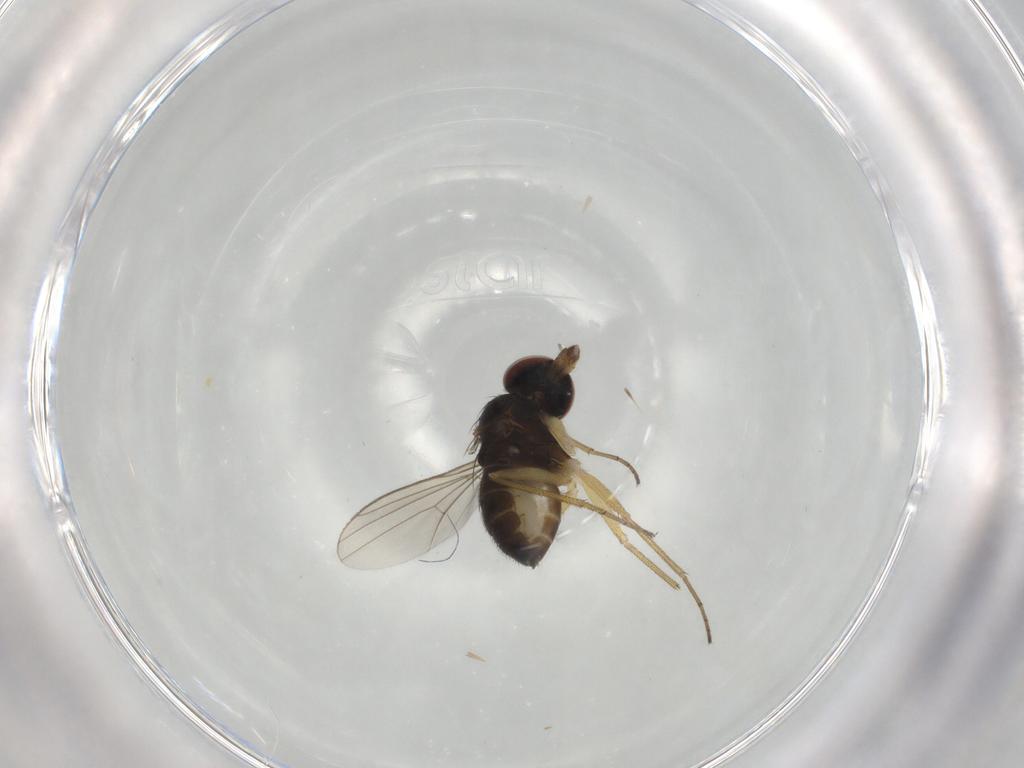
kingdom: Animalia
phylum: Arthropoda
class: Insecta
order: Diptera
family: Dolichopodidae
